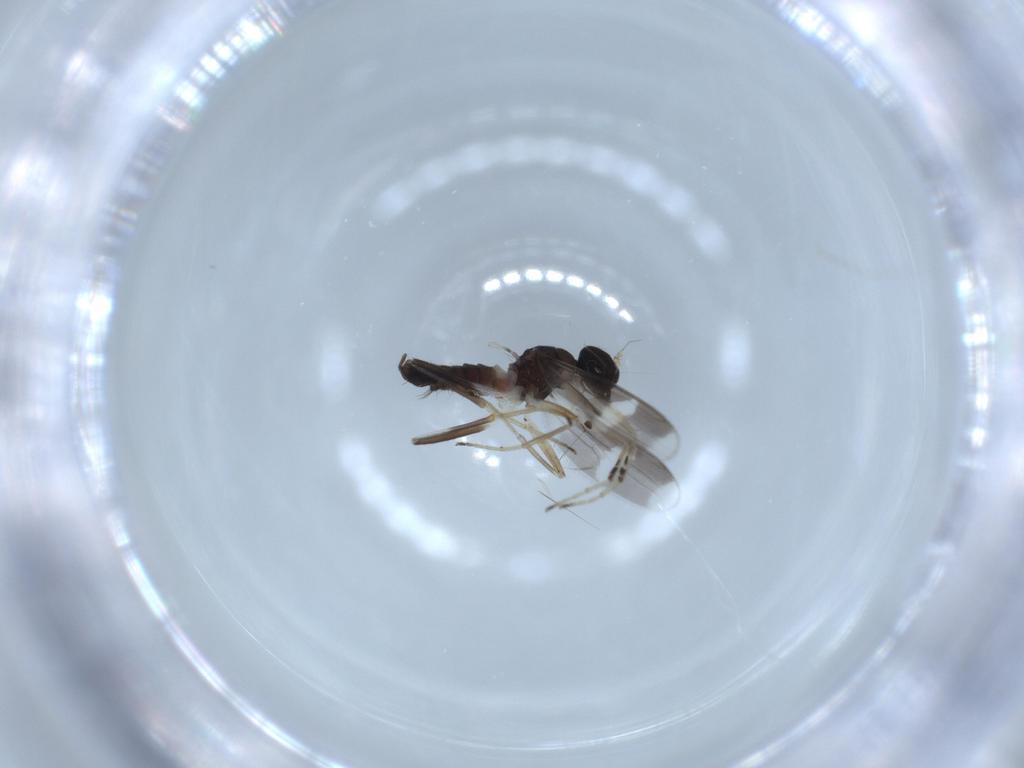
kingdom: Animalia
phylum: Arthropoda
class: Insecta
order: Diptera
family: Hybotidae
